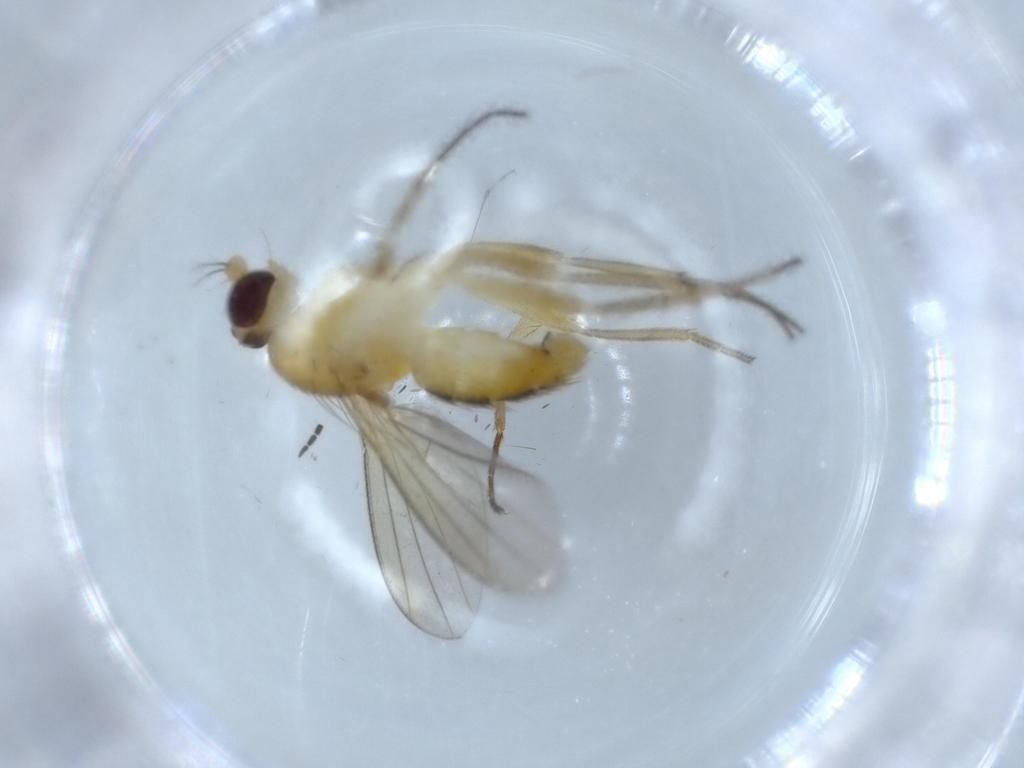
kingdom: Animalia
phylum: Arthropoda
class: Insecta
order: Diptera
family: Clusiidae
